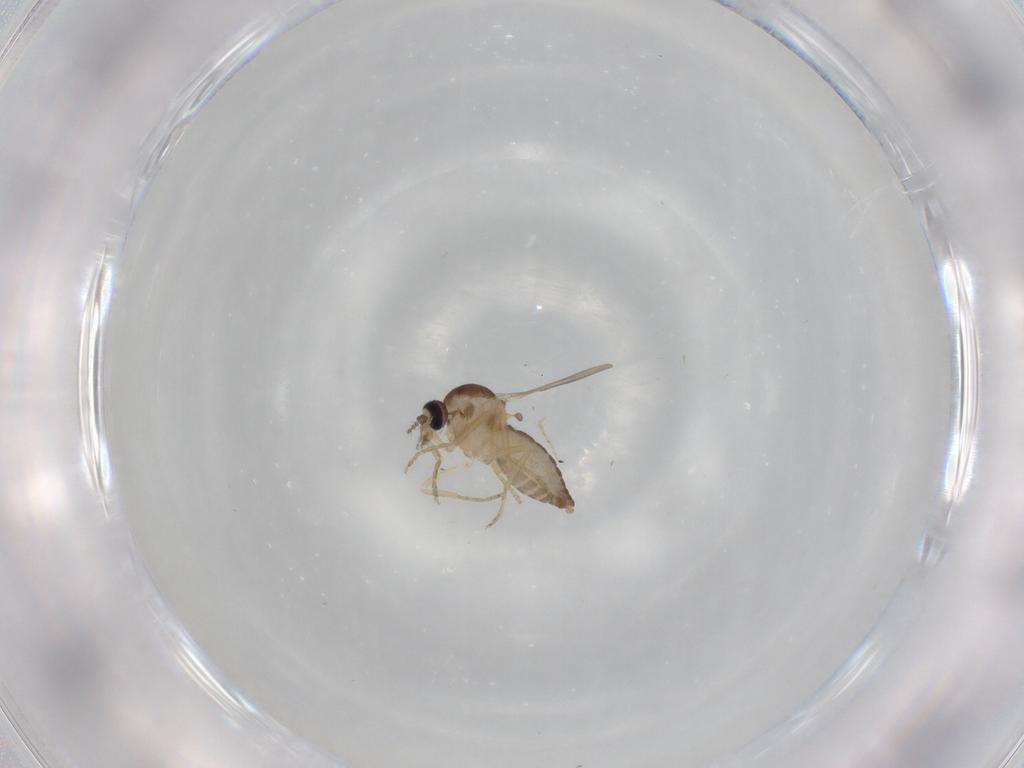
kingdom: Animalia
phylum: Arthropoda
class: Insecta
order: Diptera
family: Ceratopogonidae
